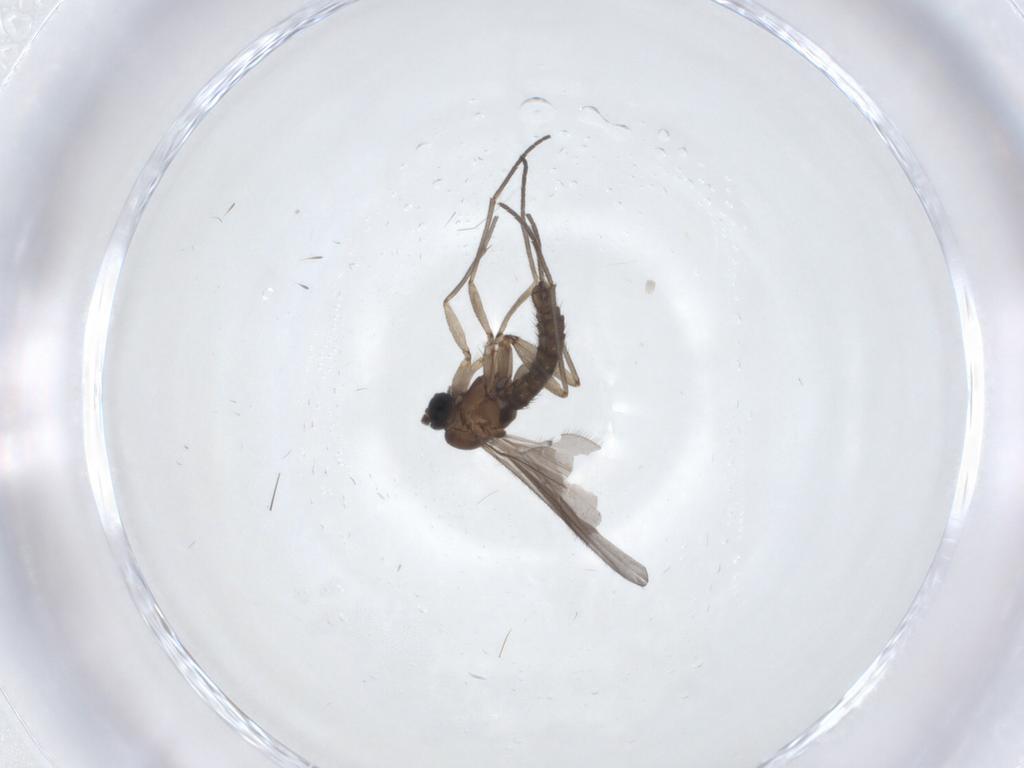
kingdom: Animalia
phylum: Arthropoda
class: Insecta
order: Diptera
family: Sciaridae
